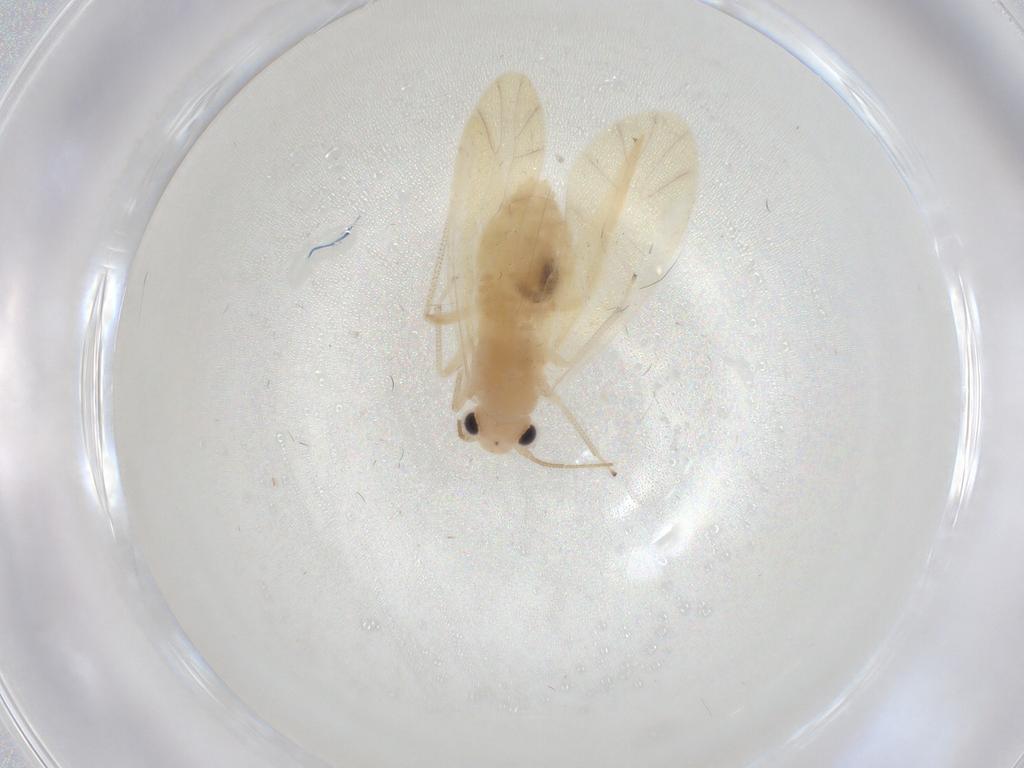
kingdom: Animalia
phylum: Arthropoda
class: Insecta
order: Psocodea
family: Caeciliusidae
